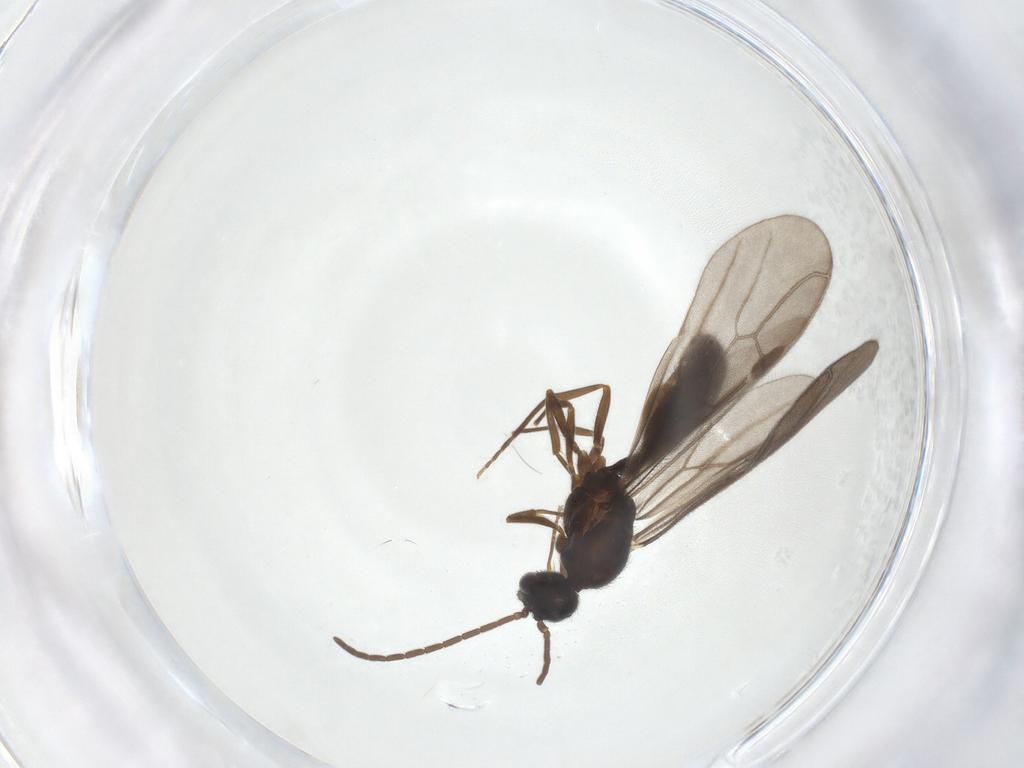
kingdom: Animalia
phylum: Arthropoda
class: Insecta
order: Hymenoptera
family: Formicidae
